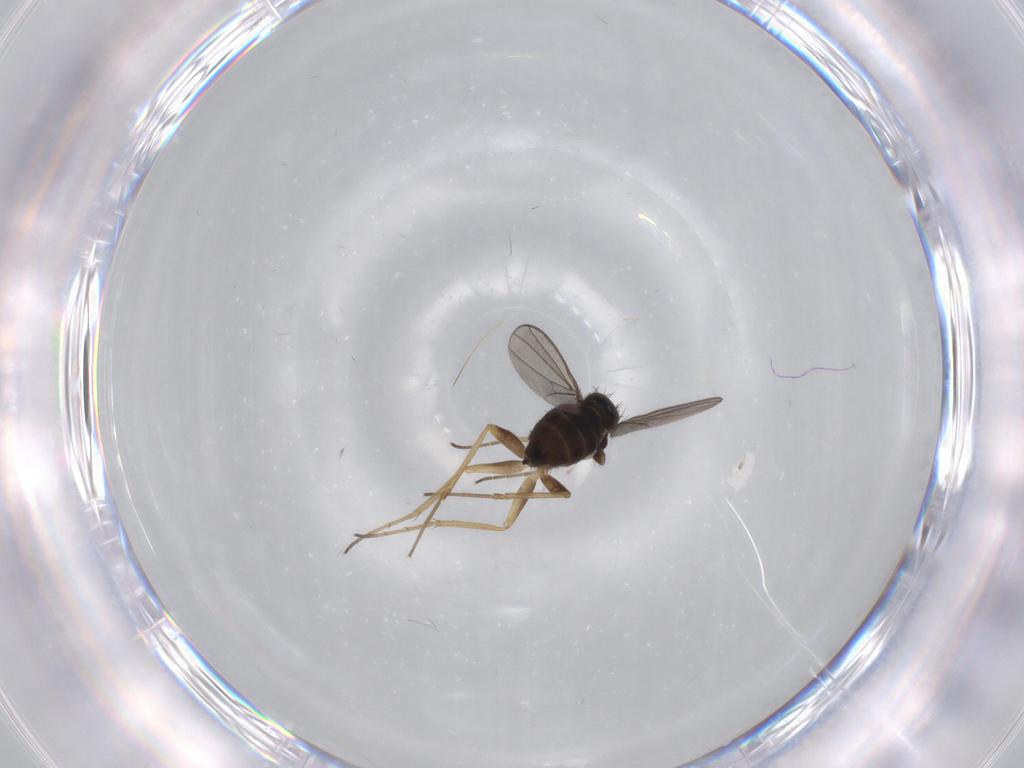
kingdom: Animalia
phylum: Arthropoda
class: Insecta
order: Diptera
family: Dolichopodidae
